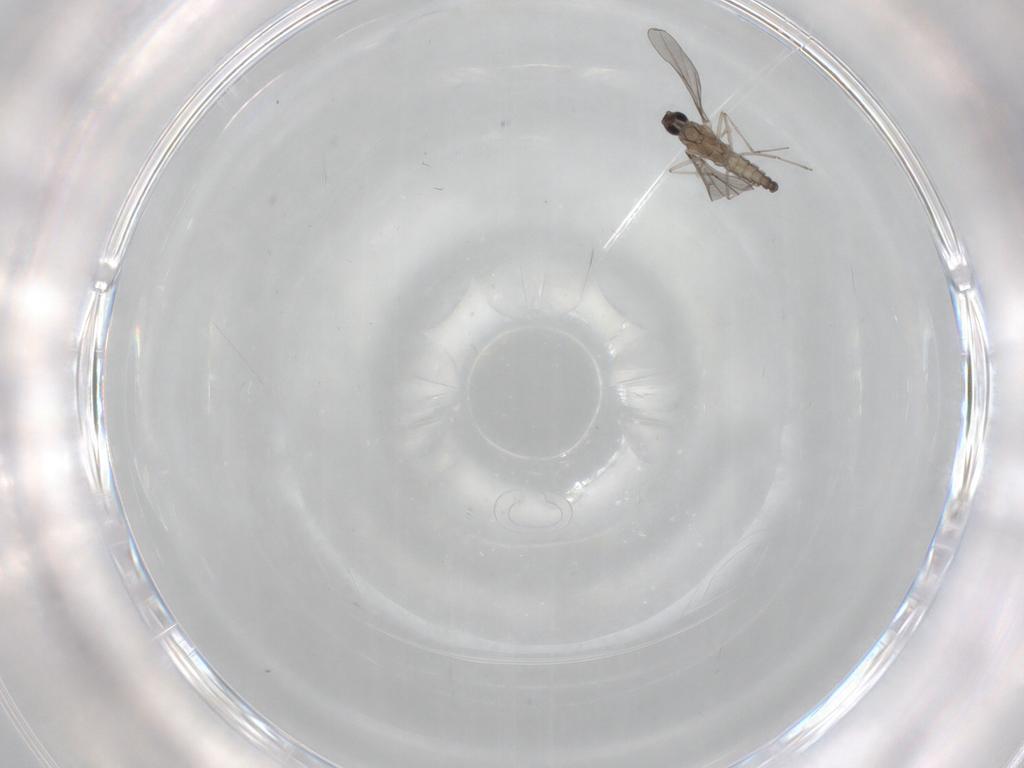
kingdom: Animalia
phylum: Arthropoda
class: Insecta
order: Diptera
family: Cecidomyiidae
